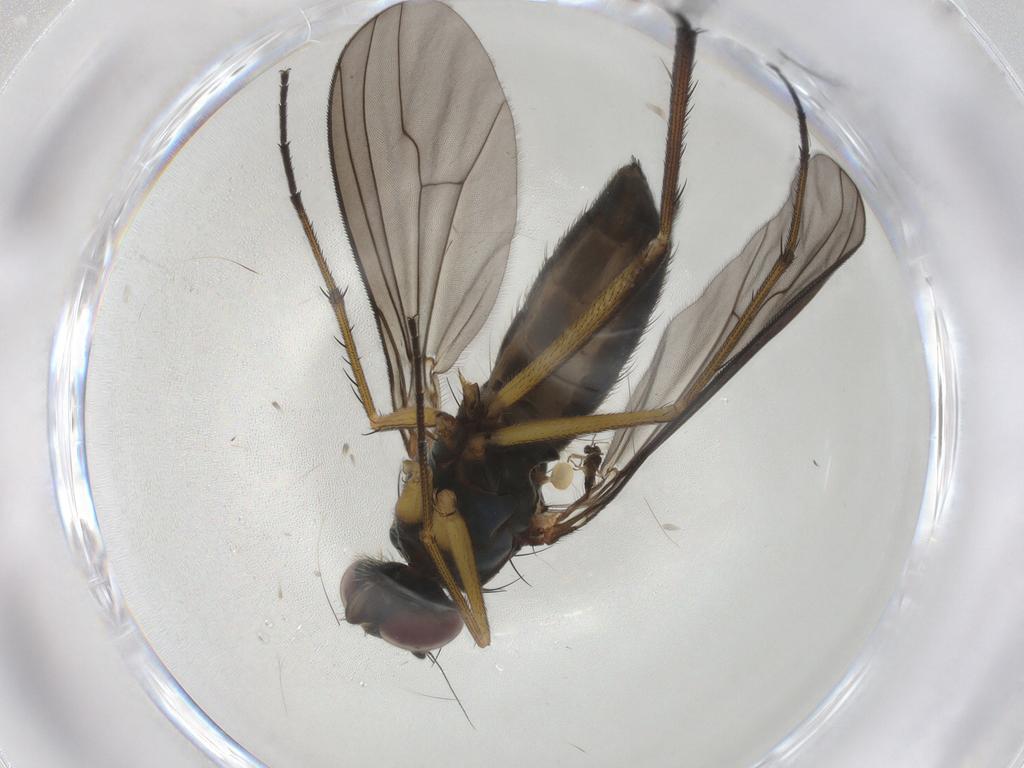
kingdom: Animalia
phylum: Arthropoda
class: Insecta
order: Diptera
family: Dolichopodidae
